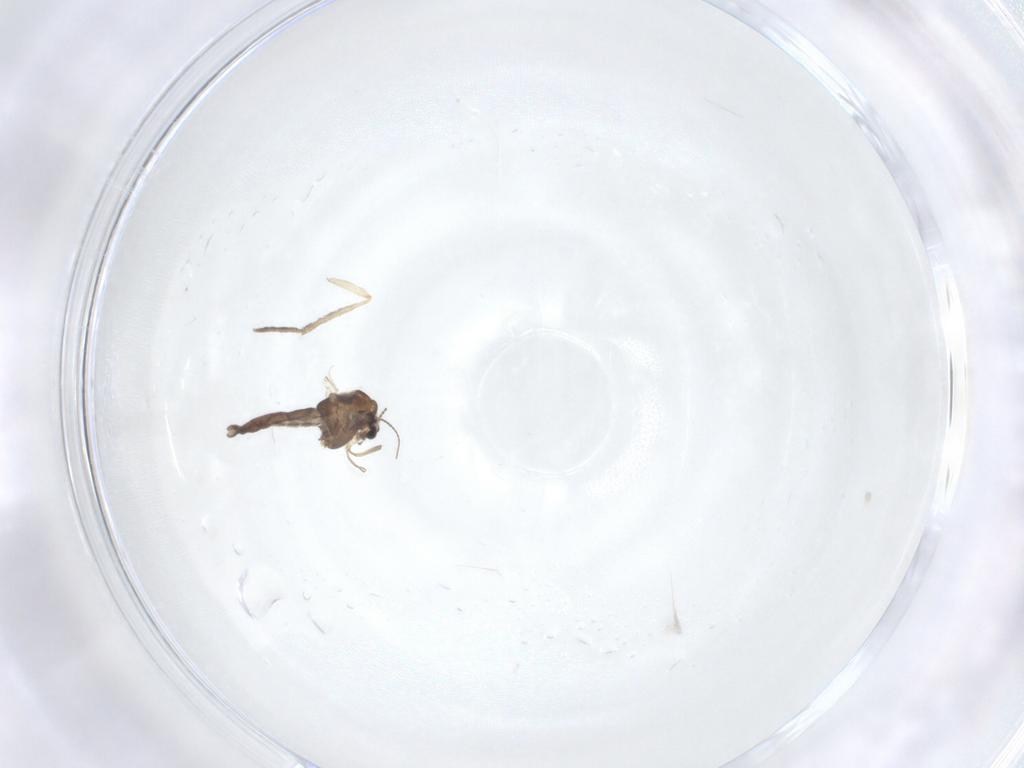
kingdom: Animalia
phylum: Arthropoda
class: Insecta
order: Diptera
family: Chironomidae
